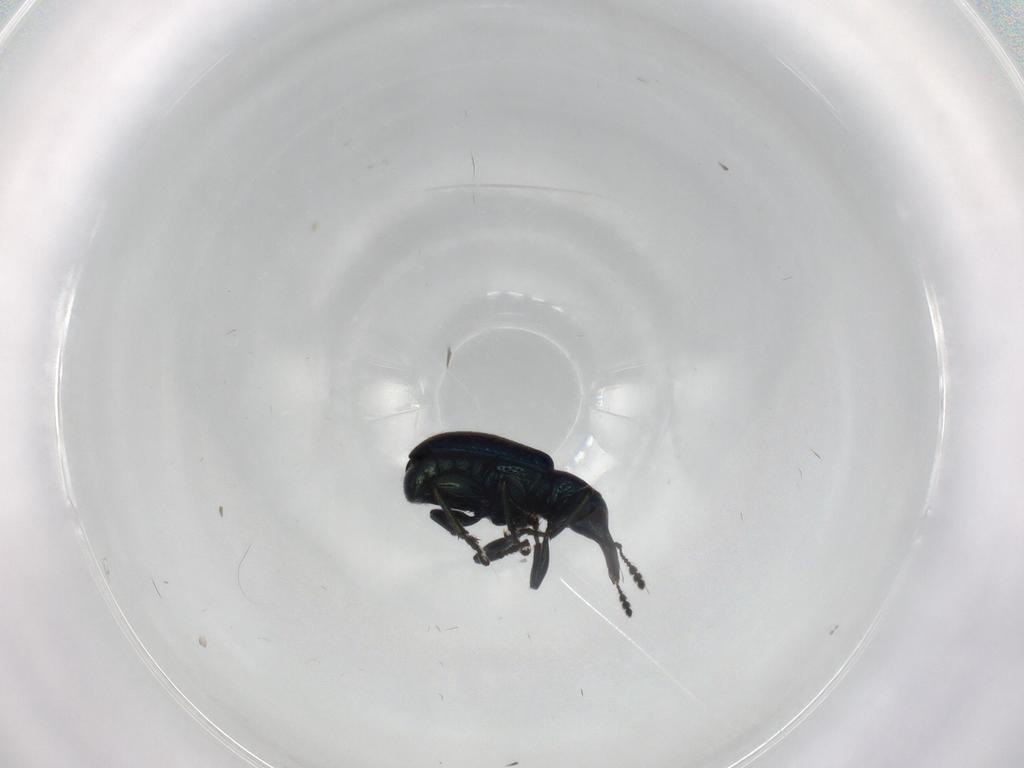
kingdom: Animalia
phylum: Arthropoda
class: Insecta
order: Coleoptera
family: Attelabidae
